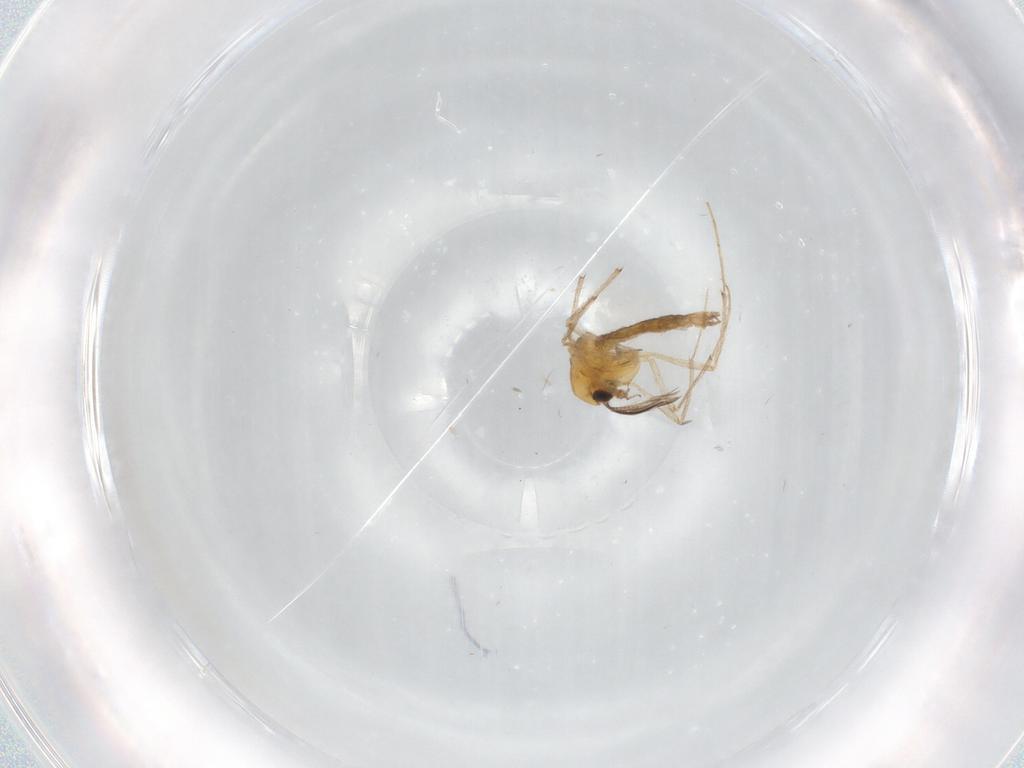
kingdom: Animalia
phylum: Arthropoda
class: Insecta
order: Diptera
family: Chironomidae
